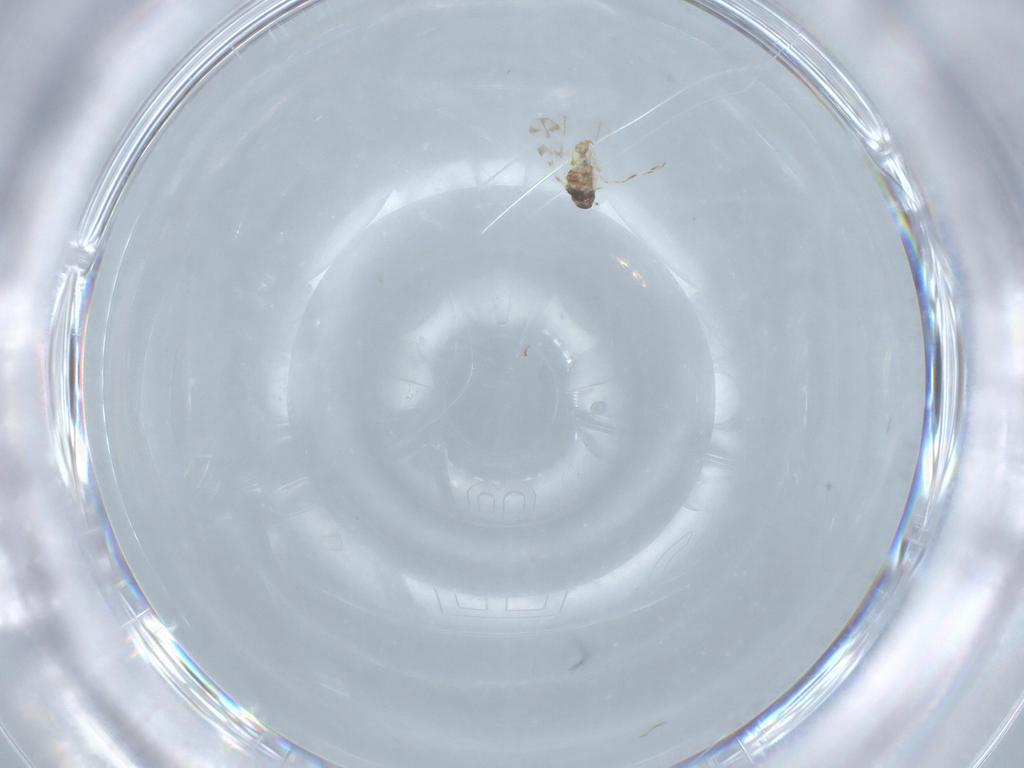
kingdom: Animalia
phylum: Arthropoda
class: Insecta
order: Hemiptera
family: Aleyrodidae
